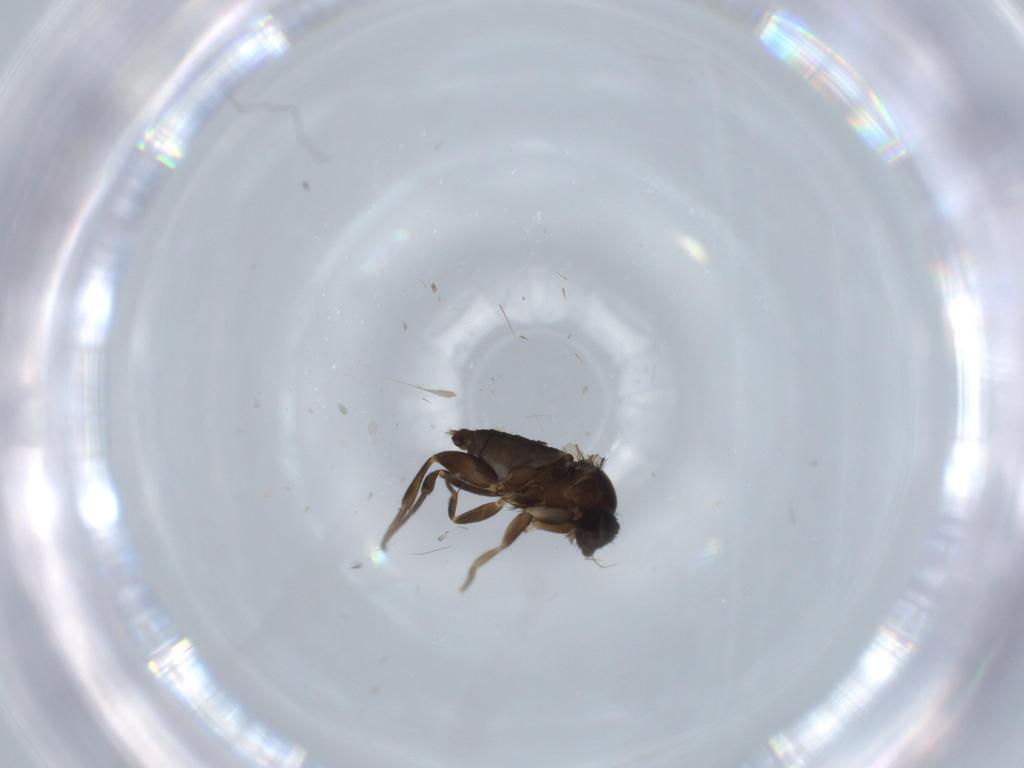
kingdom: Animalia
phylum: Arthropoda
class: Insecta
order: Diptera
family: Cecidomyiidae
